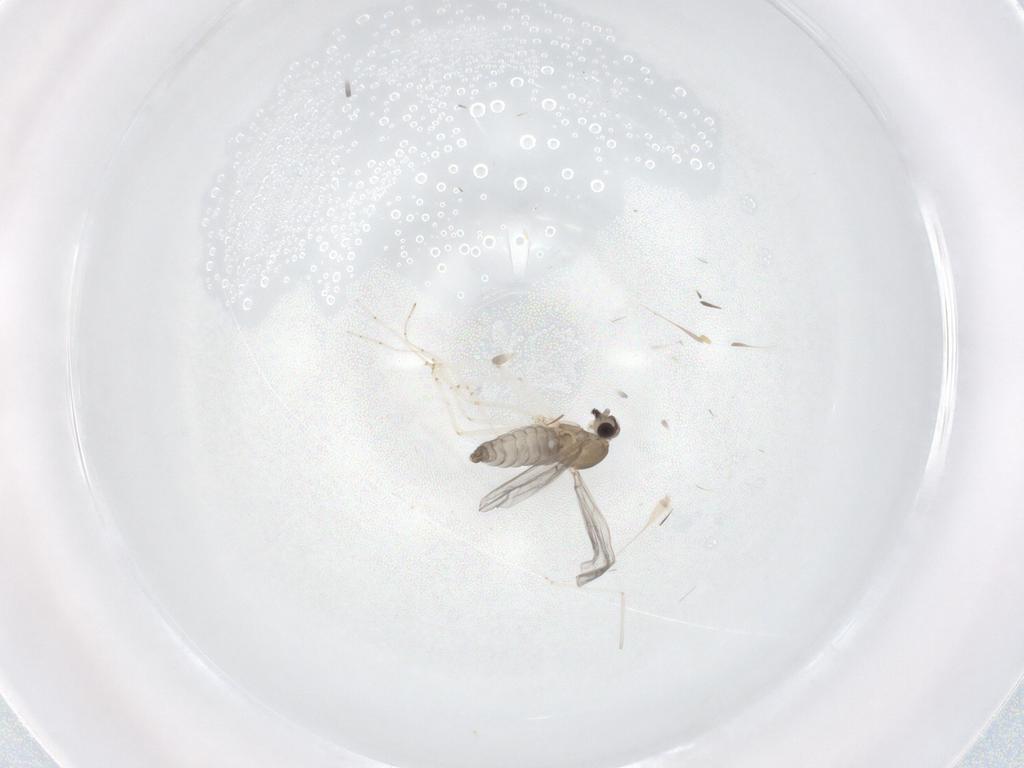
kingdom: Animalia
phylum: Arthropoda
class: Insecta
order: Diptera
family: Cecidomyiidae
